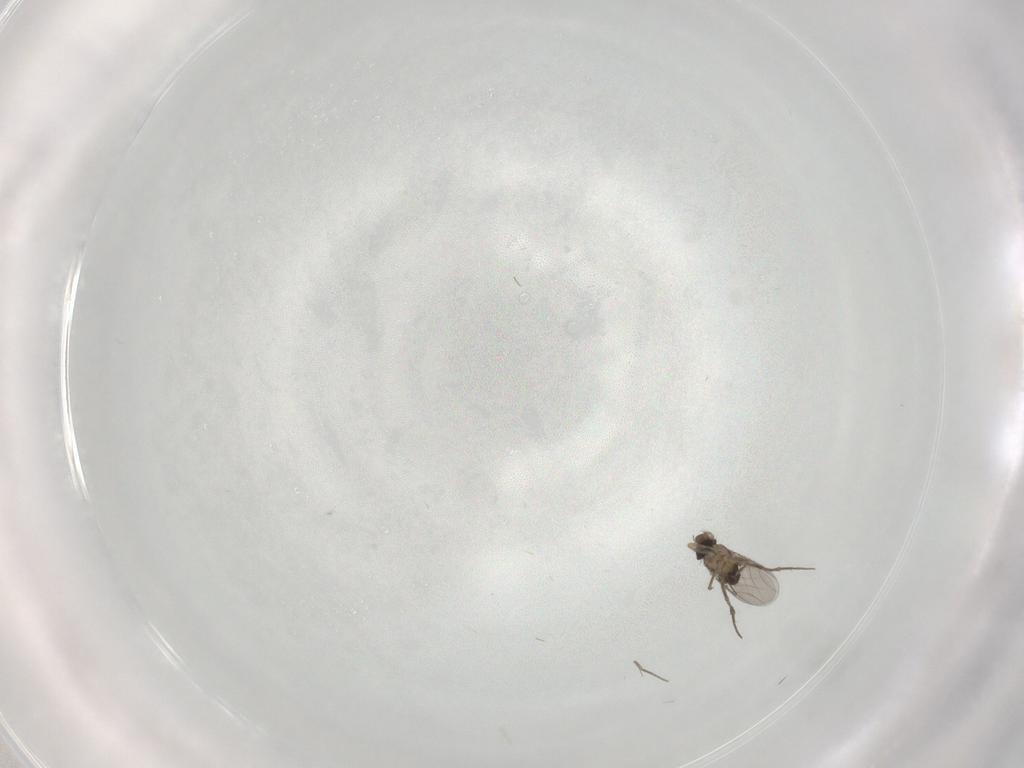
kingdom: Animalia
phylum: Arthropoda
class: Insecta
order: Diptera
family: Phoridae
